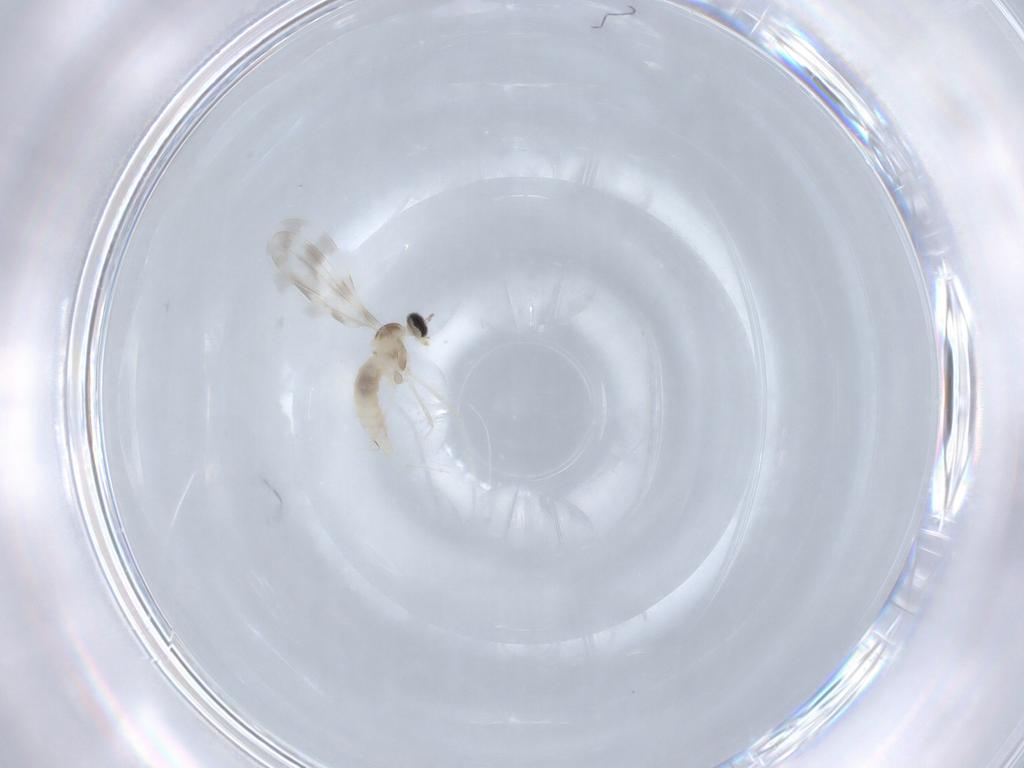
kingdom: Animalia
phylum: Arthropoda
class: Insecta
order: Diptera
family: Cecidomyiidae
